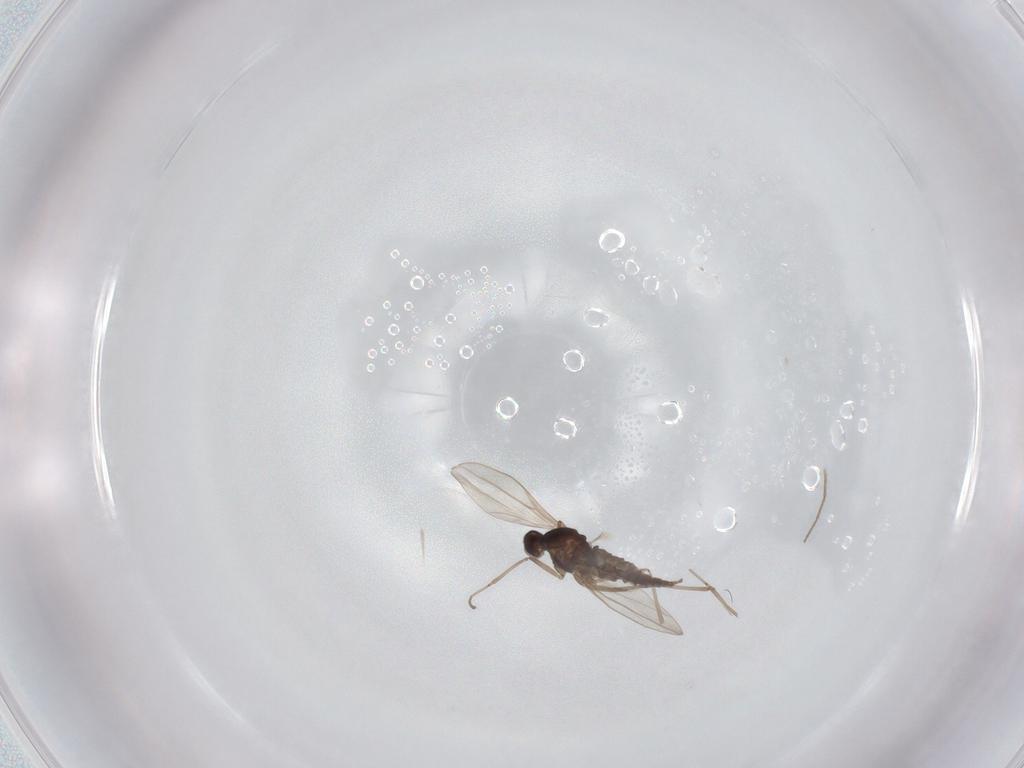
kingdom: Animalia
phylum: Arthropoda
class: Insecta
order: Diptera
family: Cecidomyiidae
